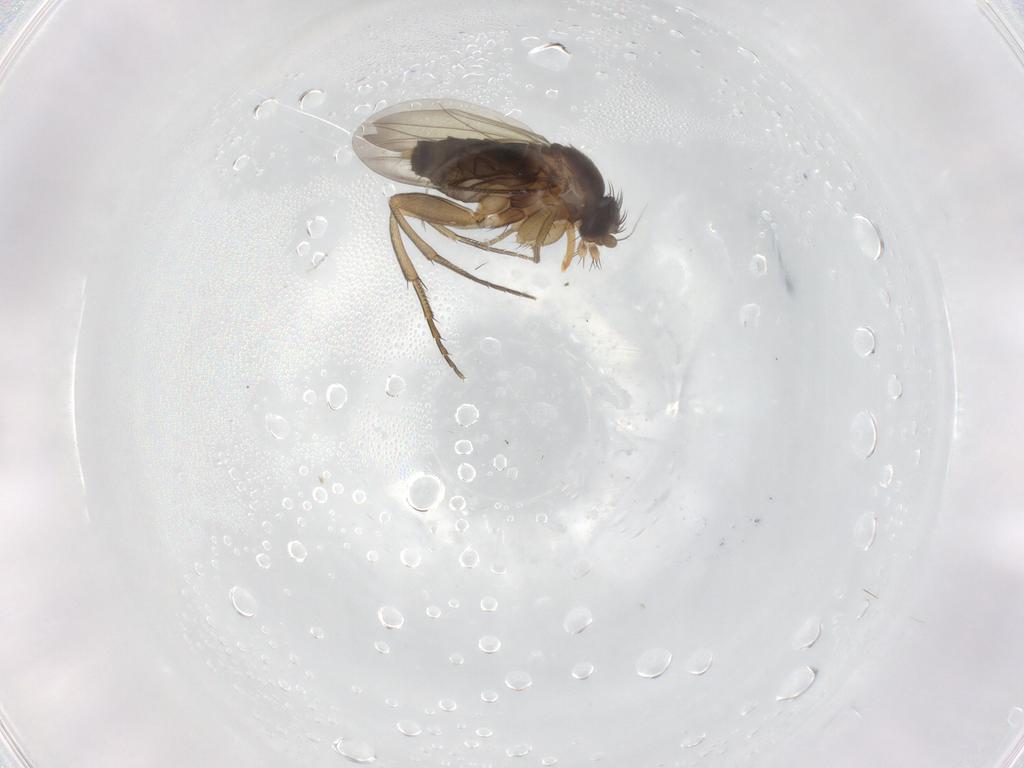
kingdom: Animalia
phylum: Arthropoda
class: Insecta
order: Diptera
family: Phoridae
